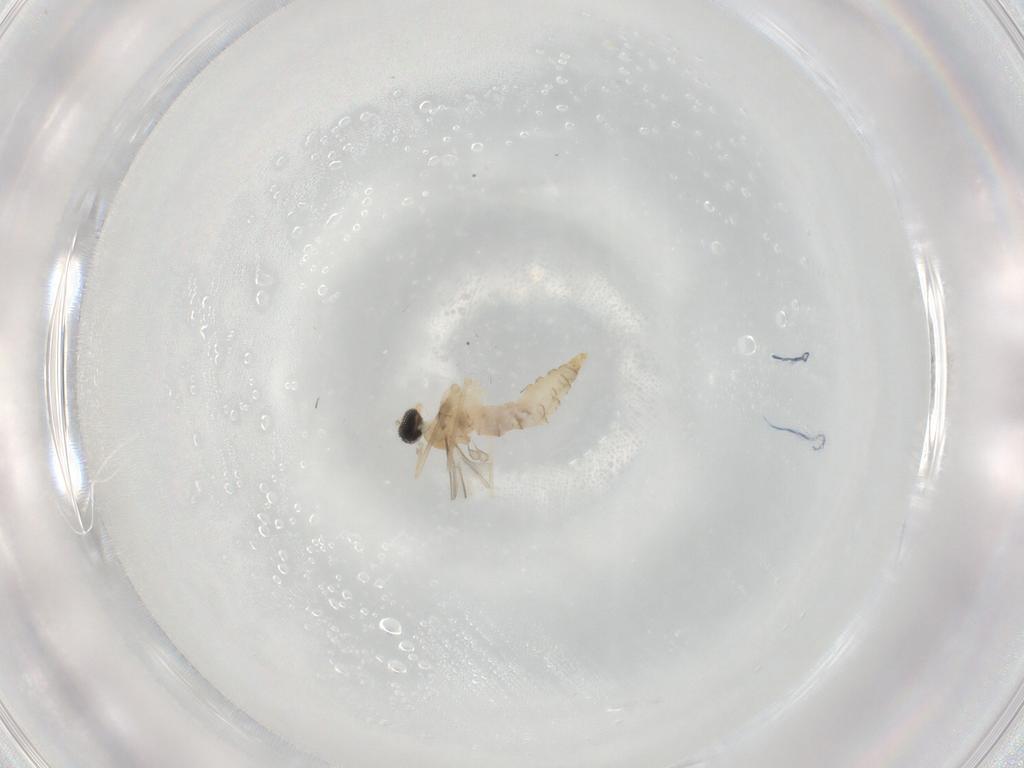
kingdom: Animalia
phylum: Arthropoda
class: Insecta
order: Diptera
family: Cecidomyiidae
